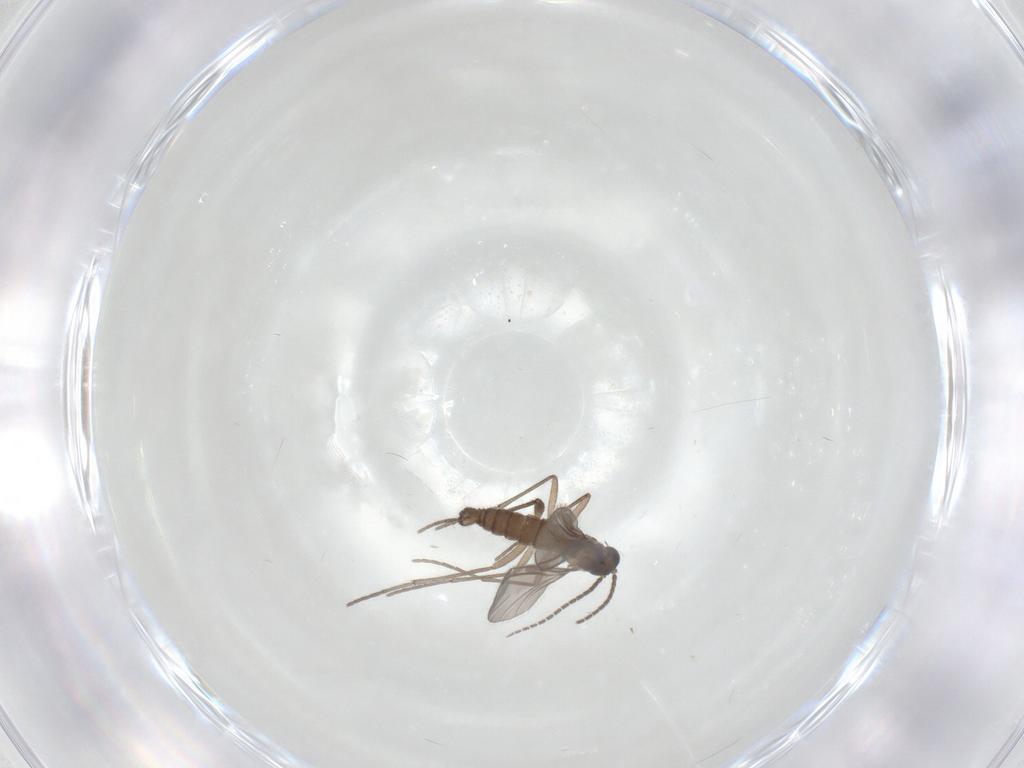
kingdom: Animalia
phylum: Arthropoda
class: Insecta
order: Diptera
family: Sciaridae
